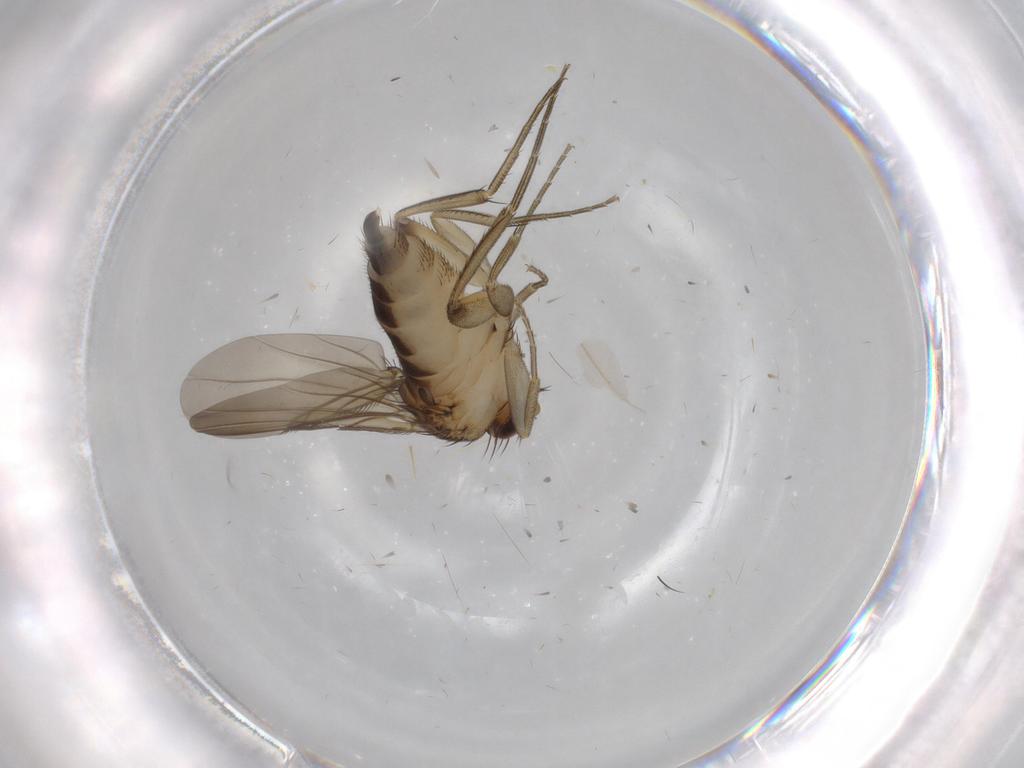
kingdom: Animalia
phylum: Arthropoda
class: Insecta
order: Diptera
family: Phoridae
